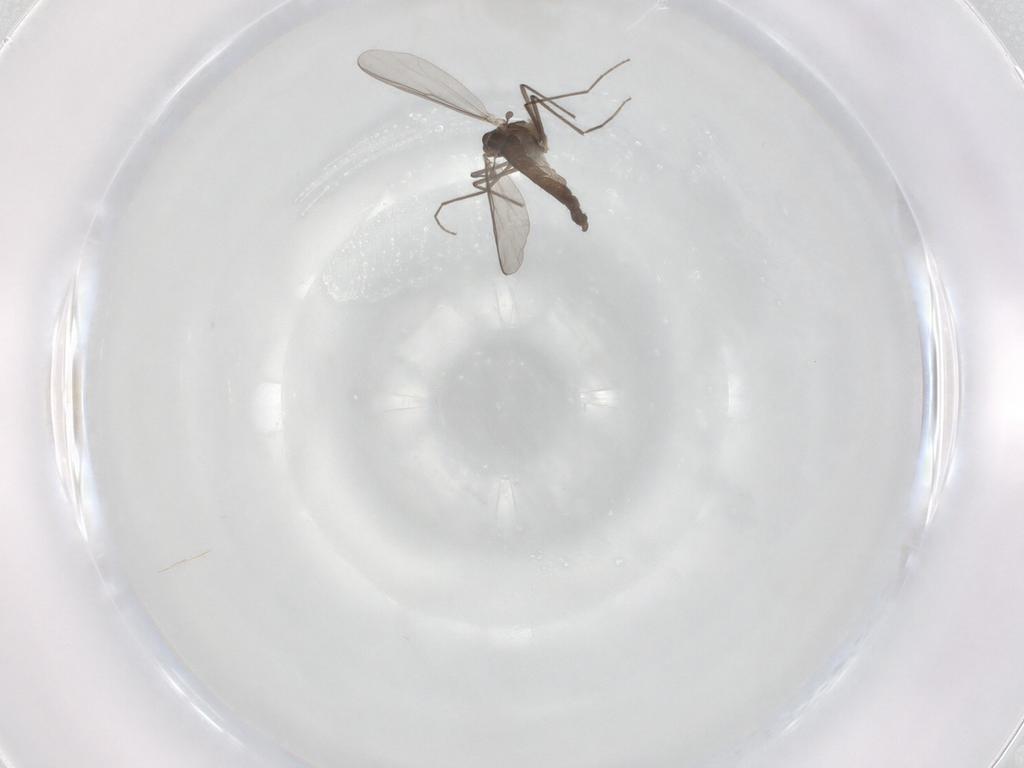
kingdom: Animalia
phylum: Arthropoda
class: Insecta
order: Diptera
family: Chironomidae
